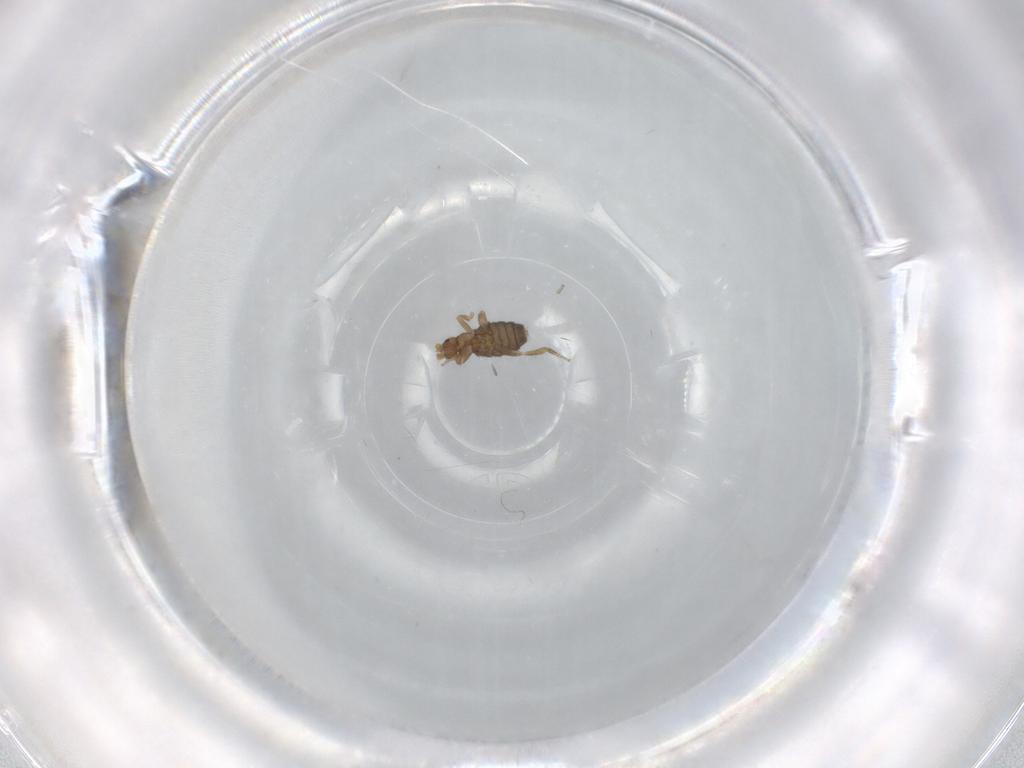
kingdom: Animalia
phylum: Arthropoda
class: Insecta
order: Diptera
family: Phoridae
